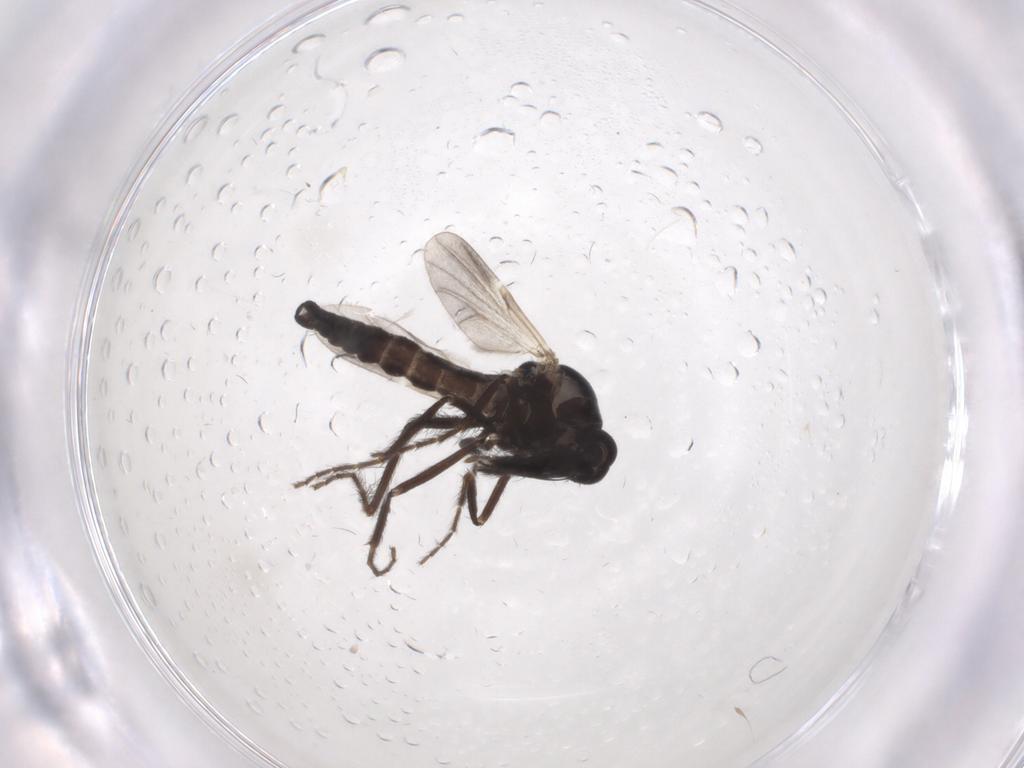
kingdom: Animalia
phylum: Arthropoda
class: Insecta
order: Diptera
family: Ceratopogonidae
